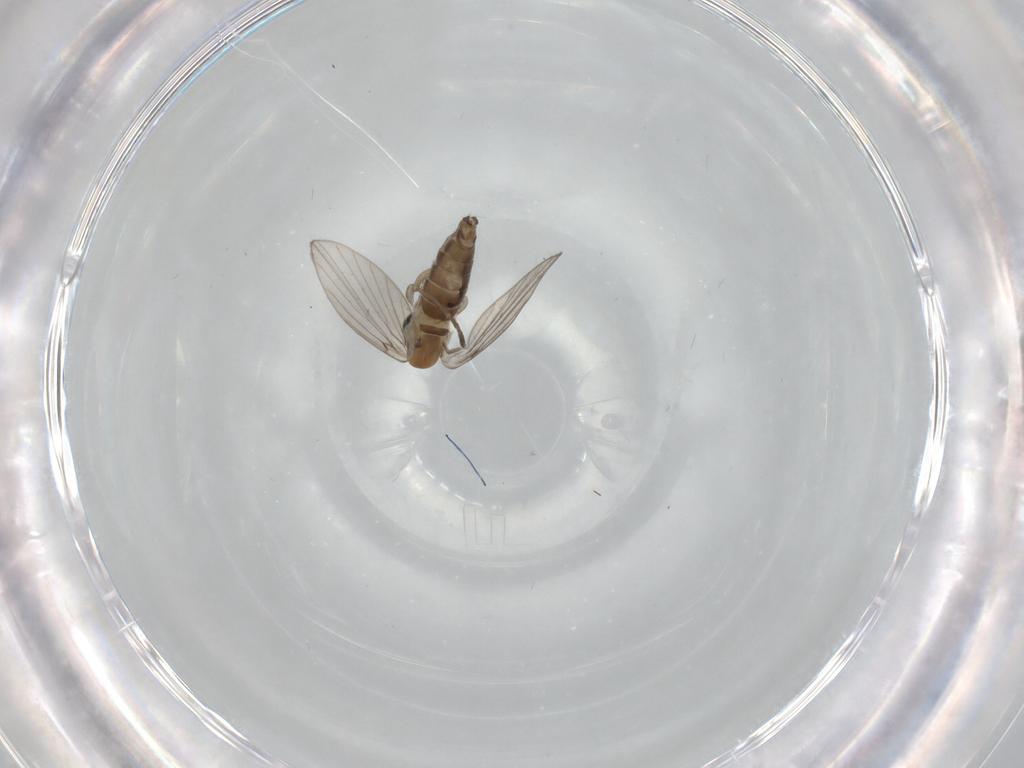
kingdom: Animalia
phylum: Arthropoda
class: Insecta
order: Diptera
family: Psychodidae
